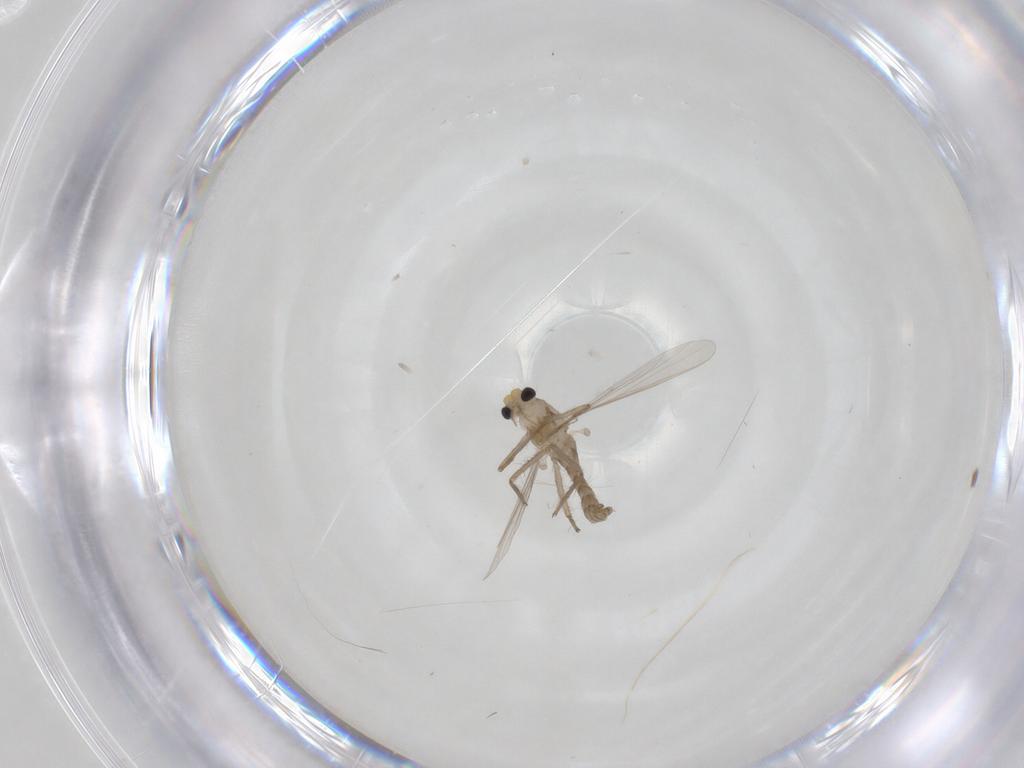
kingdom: Animalia
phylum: Arthropoda
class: Insecta
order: Diptera
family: Chironomidae
